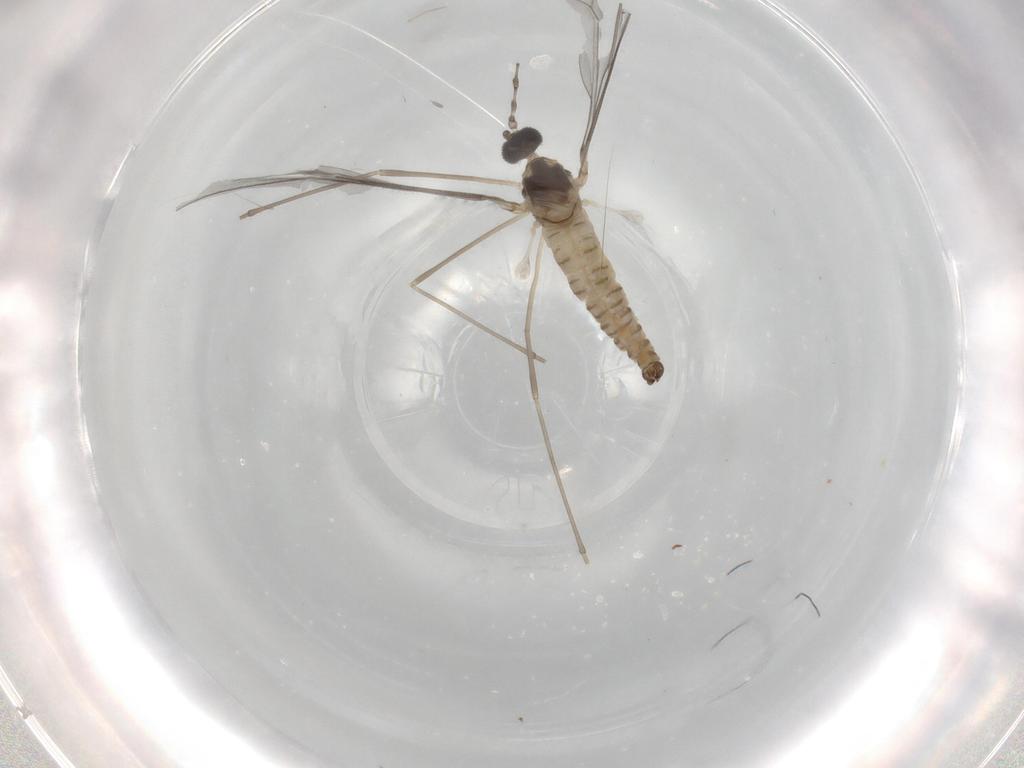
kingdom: Animalia
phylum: Arthropoda
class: Insecta
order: Diptera
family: Cecidomyiidae
